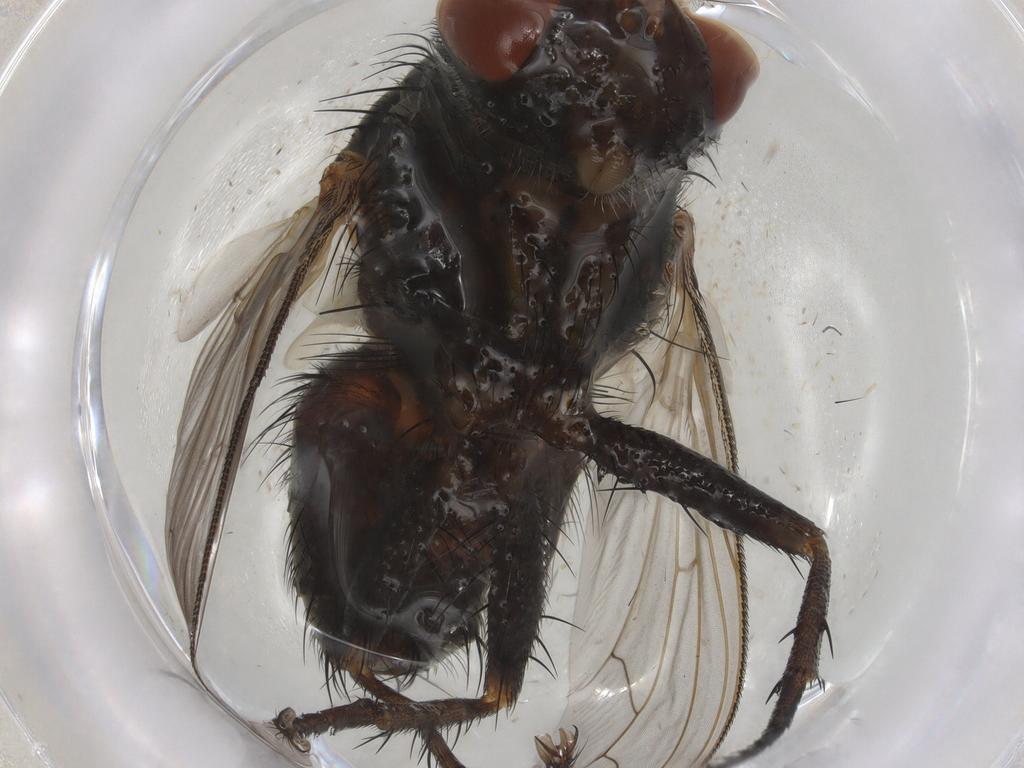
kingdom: Animalia
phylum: Arthropoda
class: Insecta
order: Diptera
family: Sarcophagidae
